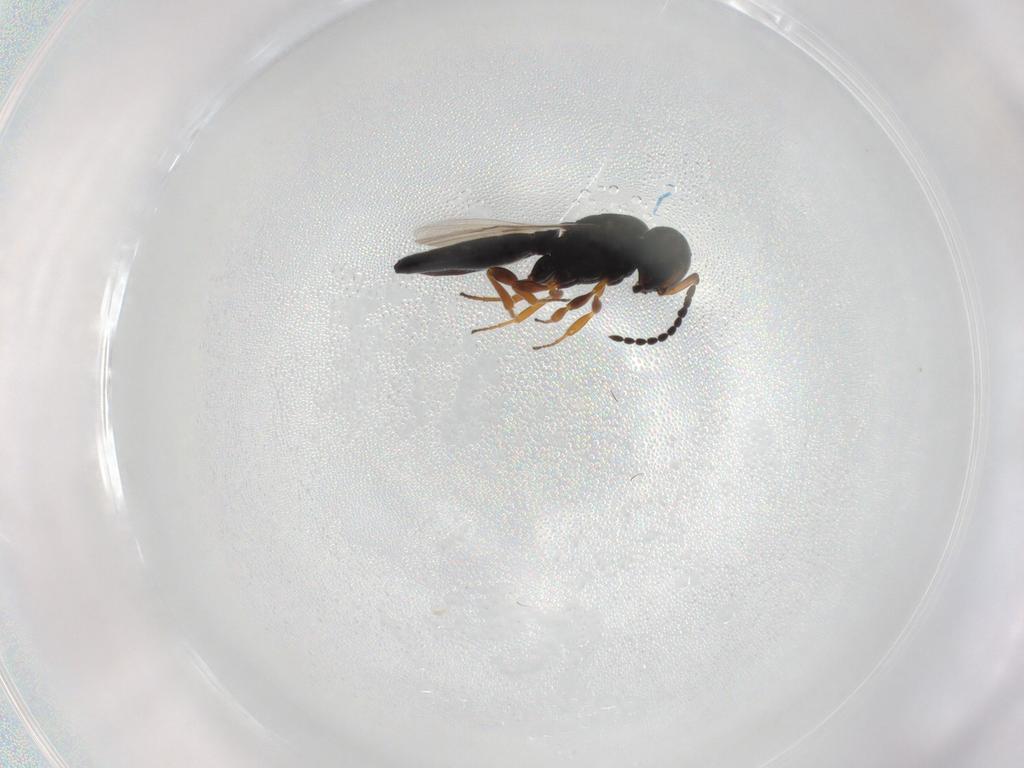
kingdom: Animalia
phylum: Arthropoda
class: Insecta
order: Hymenoptera
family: Scelionidae
